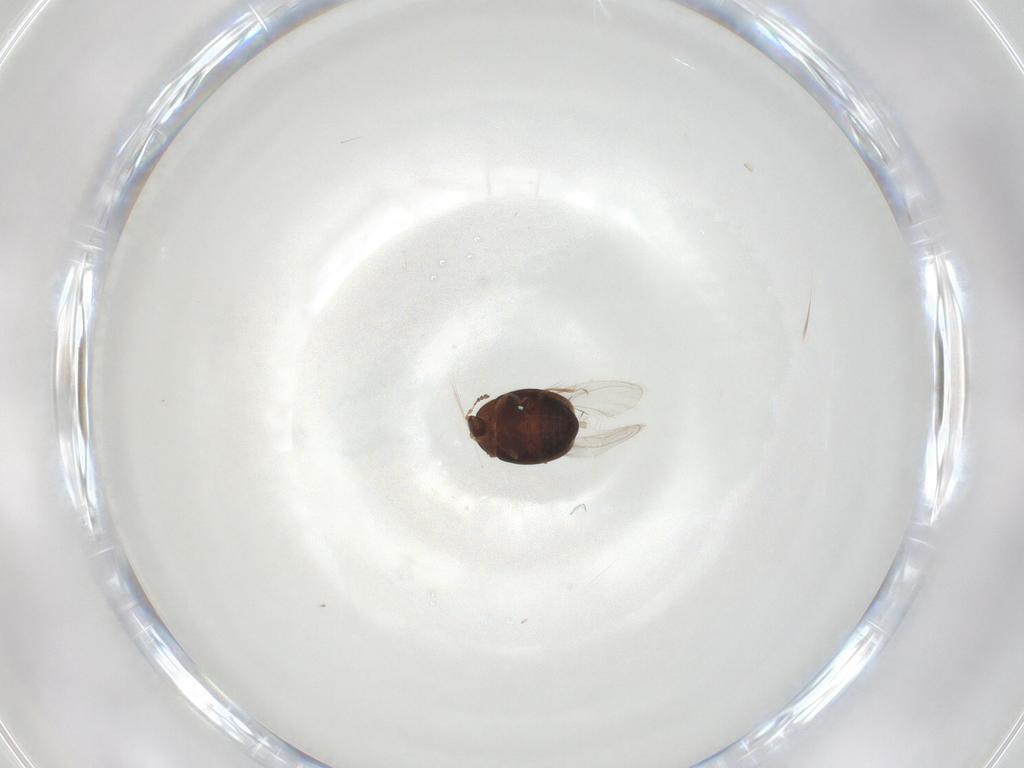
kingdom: Animalia
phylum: Arthropoda
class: Insecta
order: Coleoptera
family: Corylophidae
